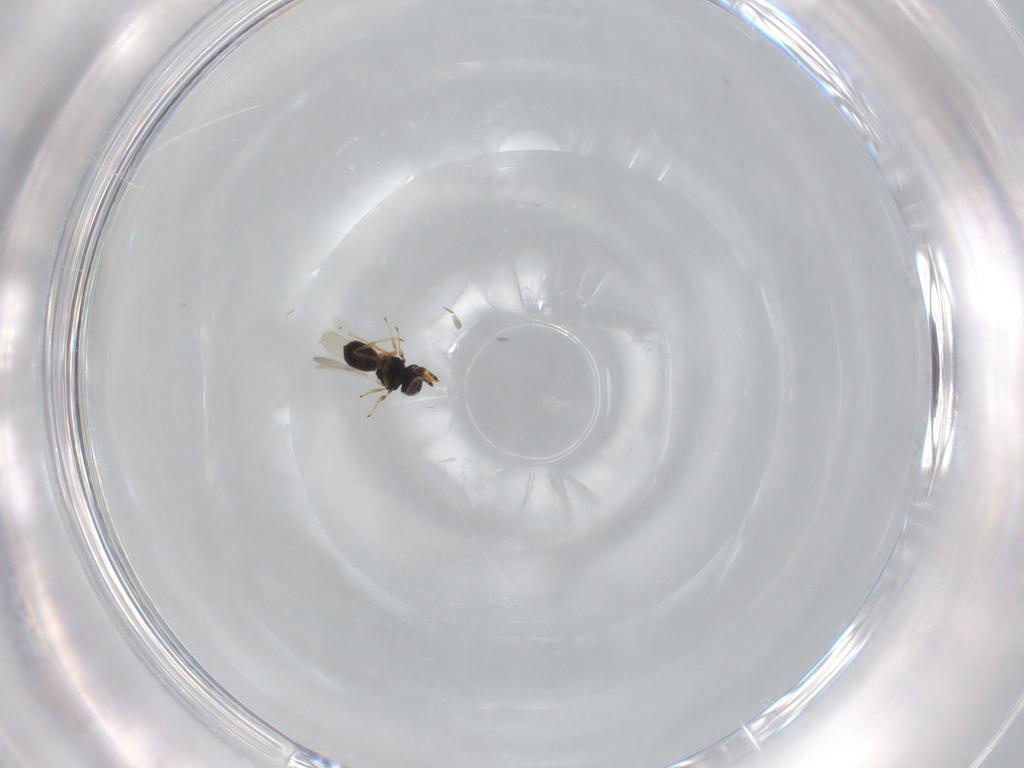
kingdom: Animalia
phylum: Arthropoda
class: Insecta
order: Hymenoptera
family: Scelionidae
